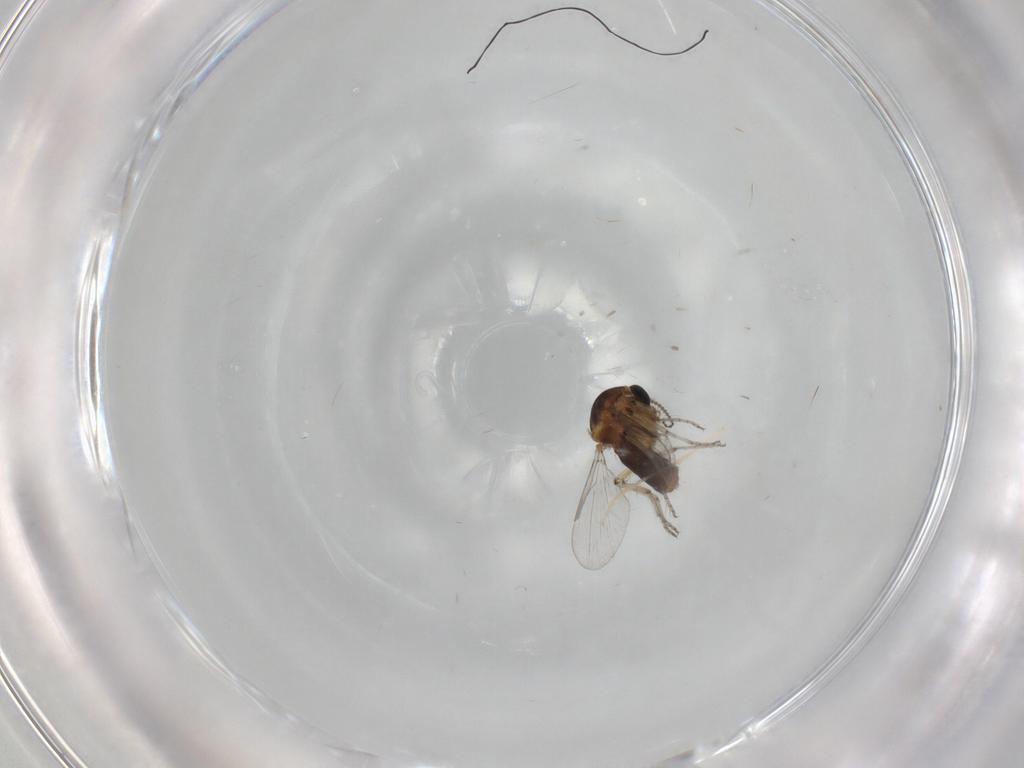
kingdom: Animalia
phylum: Arthropoda
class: Insecta
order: Diptera
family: Ceratopogonidae
